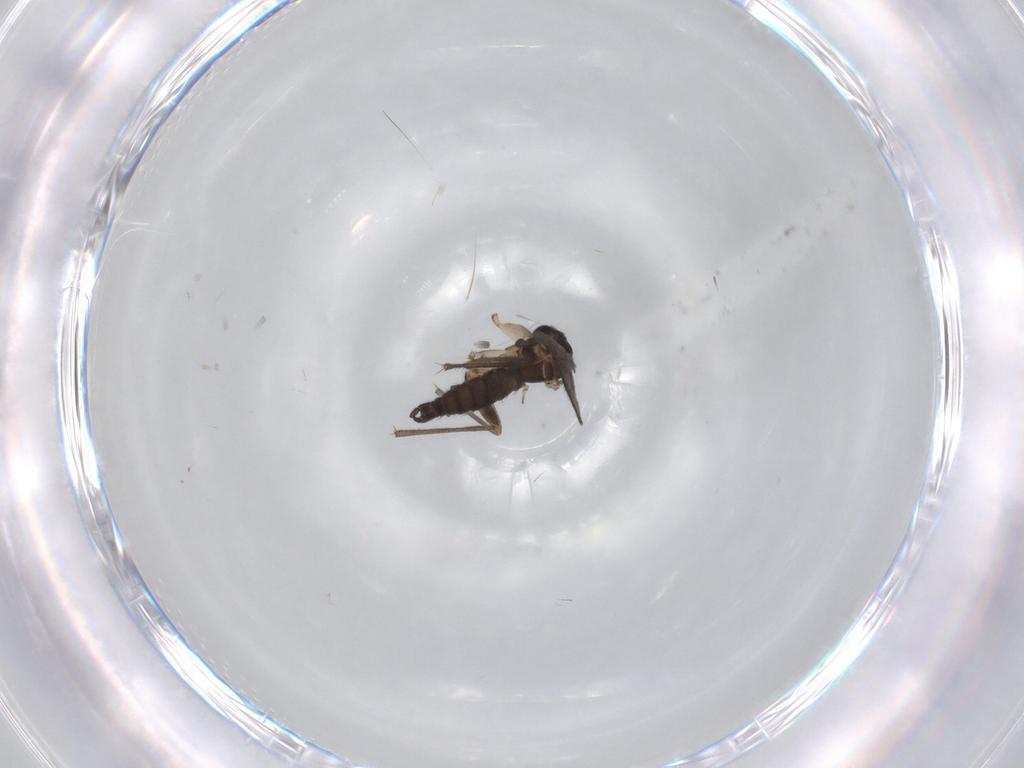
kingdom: Animalia
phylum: Arthropoda
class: Insecta
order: Diptera
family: Sciaridae
